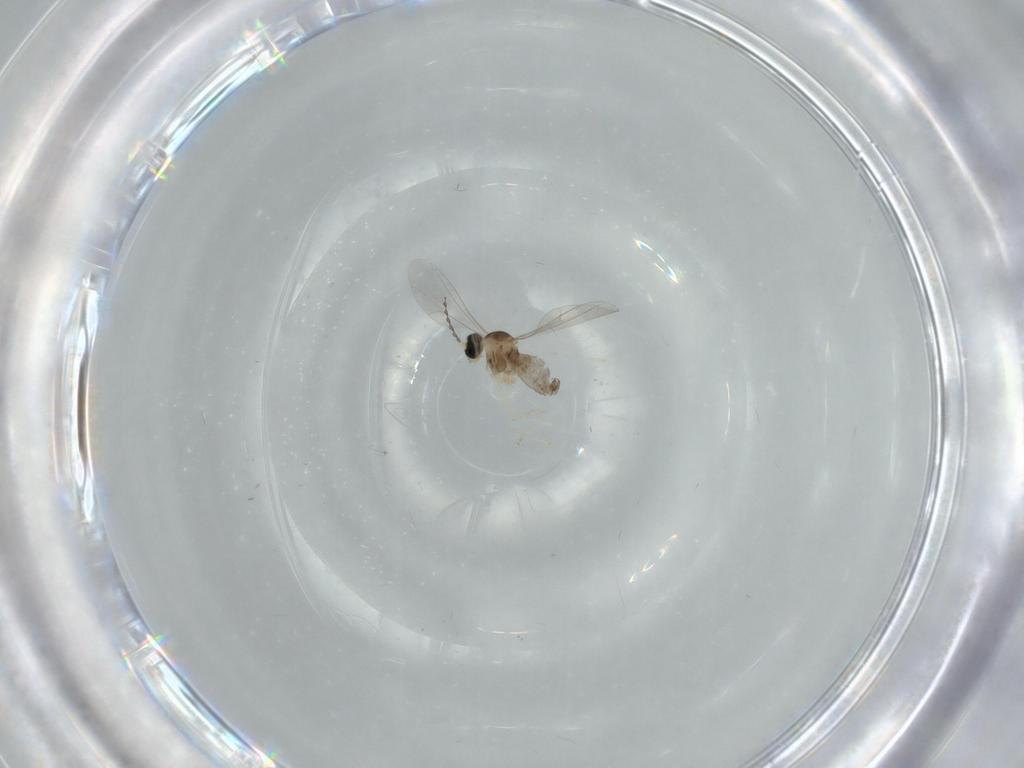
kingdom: Animalia
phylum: Arthropoda
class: Insecta
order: Diptera
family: Cecidomyiidae
